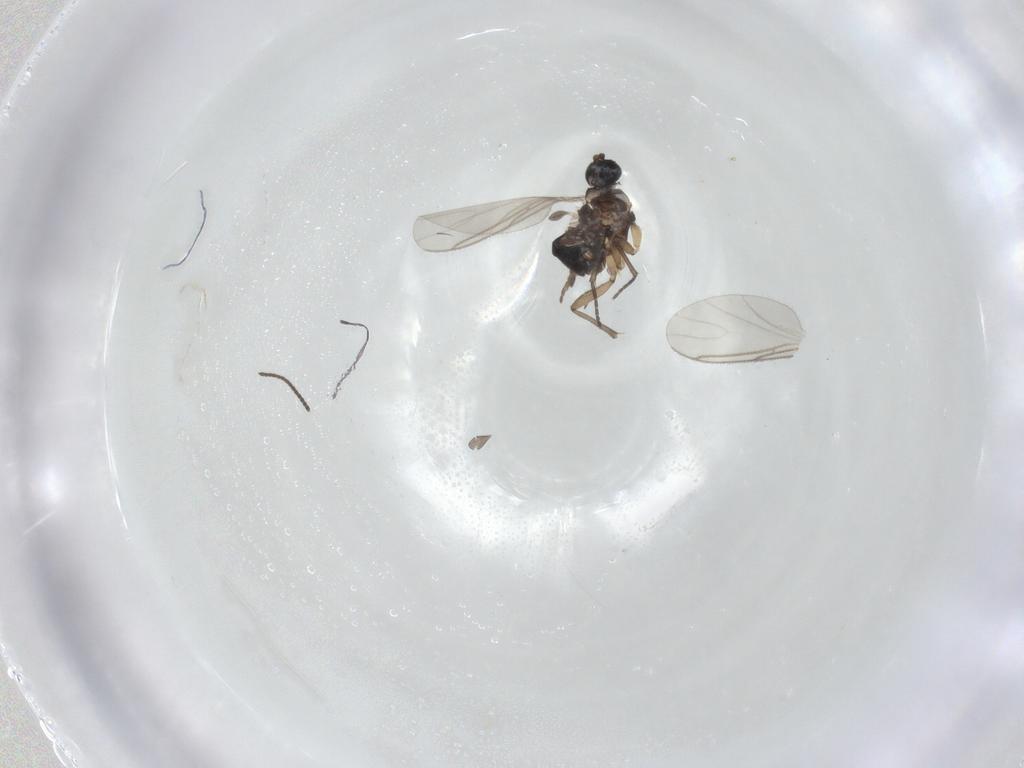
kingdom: Animalia
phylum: Arthropoda
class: Insecta
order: Diptera
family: Sciaridae
